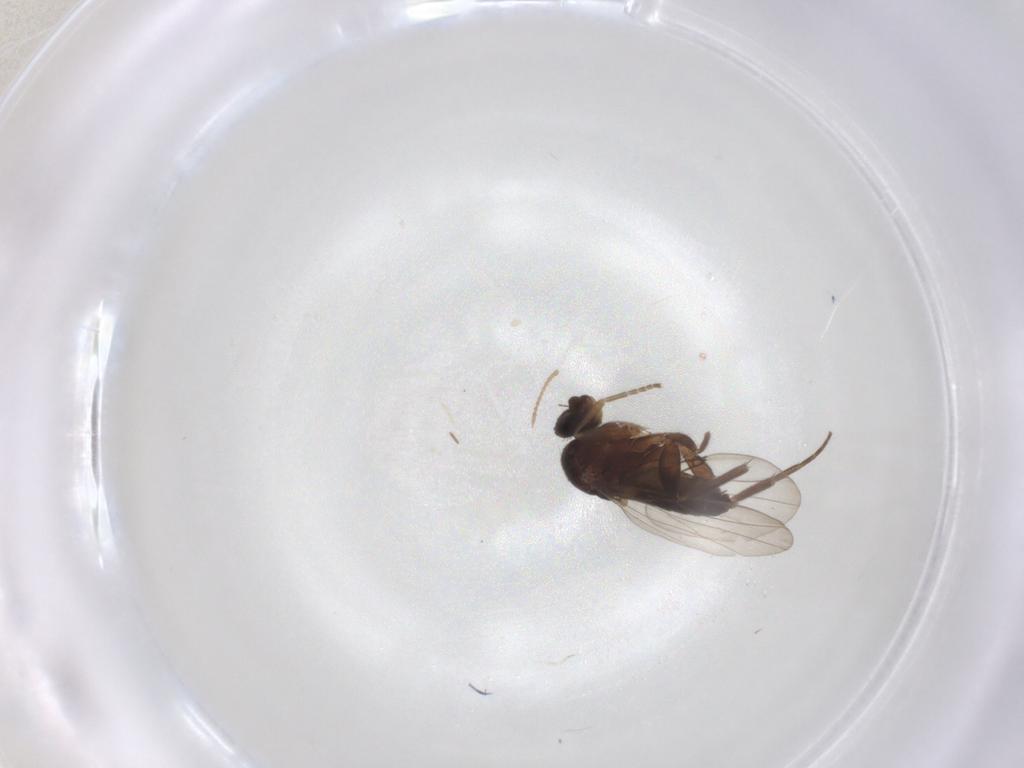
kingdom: Animalia
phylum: Arthropoda
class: Insecta
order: Diptera
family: Phoridae
